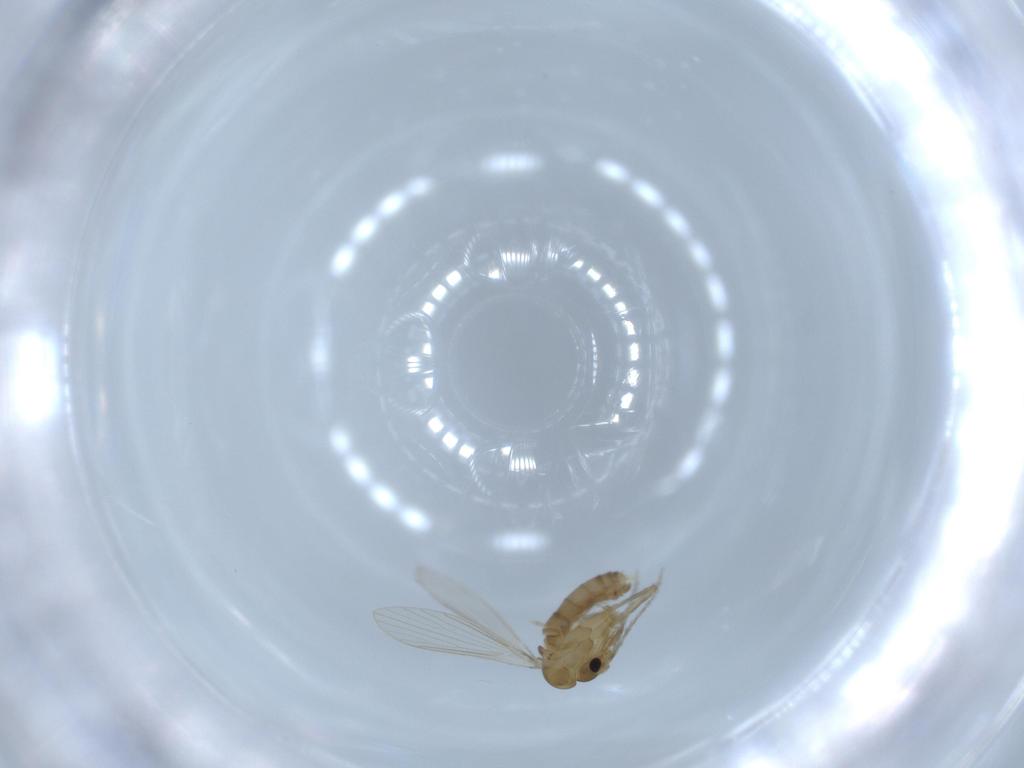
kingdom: Animalia
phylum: Arthropoda
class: Insecta
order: Diptera
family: Psychodidae
